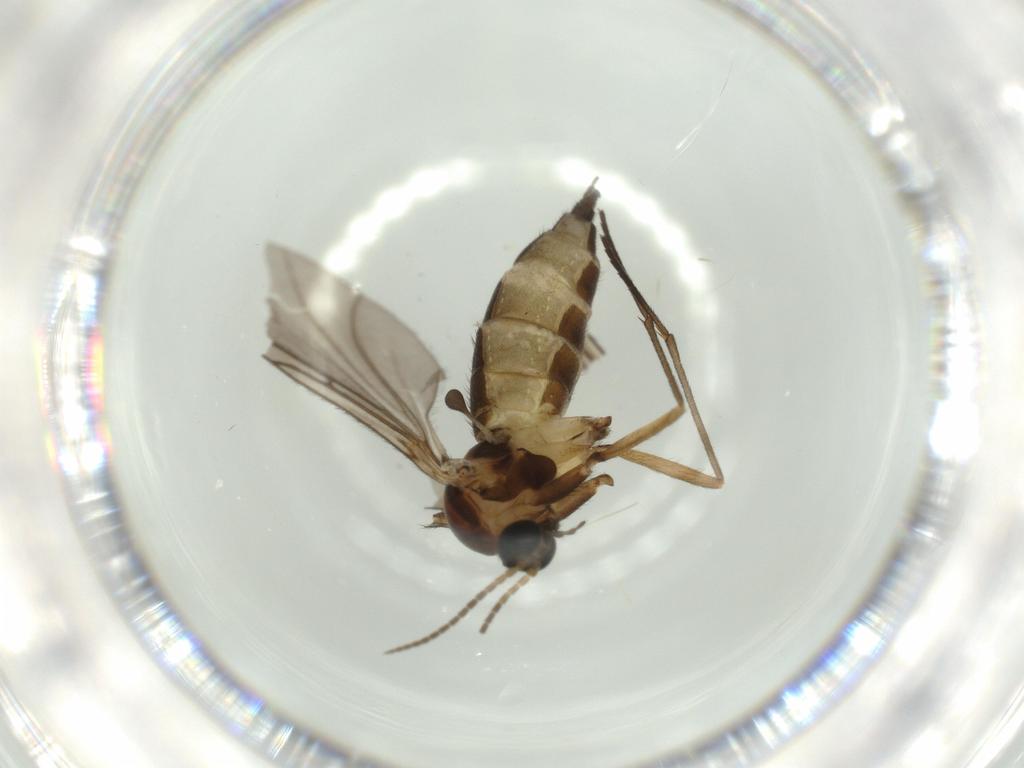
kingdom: Animalia
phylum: Arthropoda
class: Insecta
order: Diptera
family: Sciaridae
